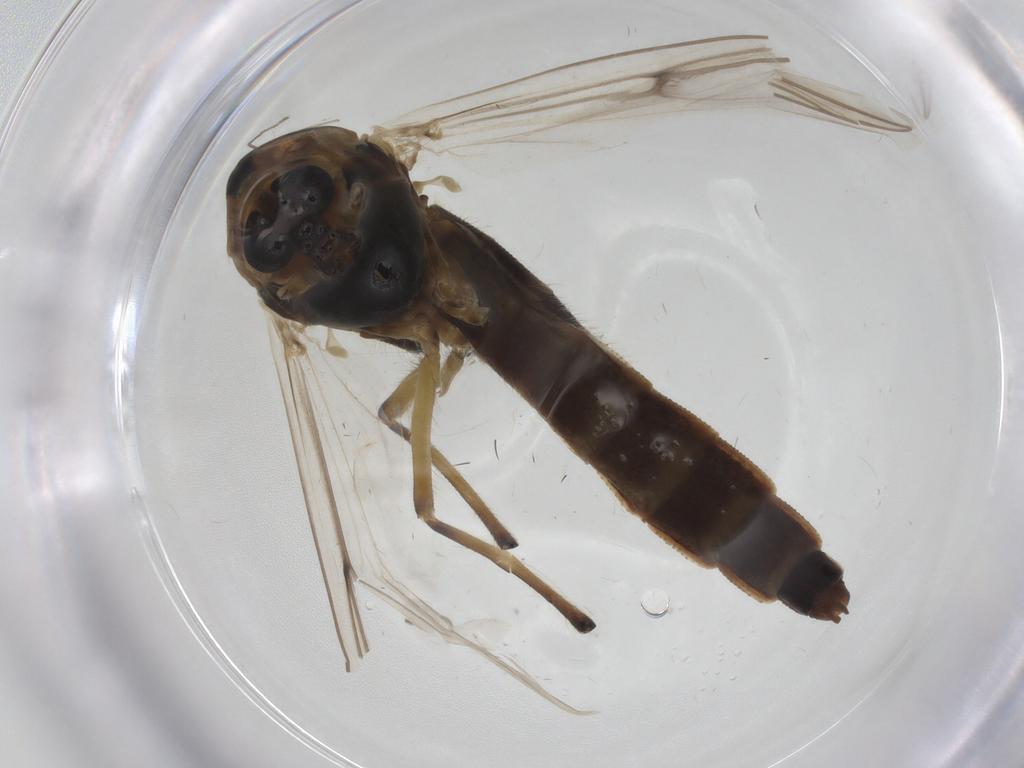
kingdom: Animalia
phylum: Arthropoda
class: Insecta
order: Diptera
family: Chironomidae
